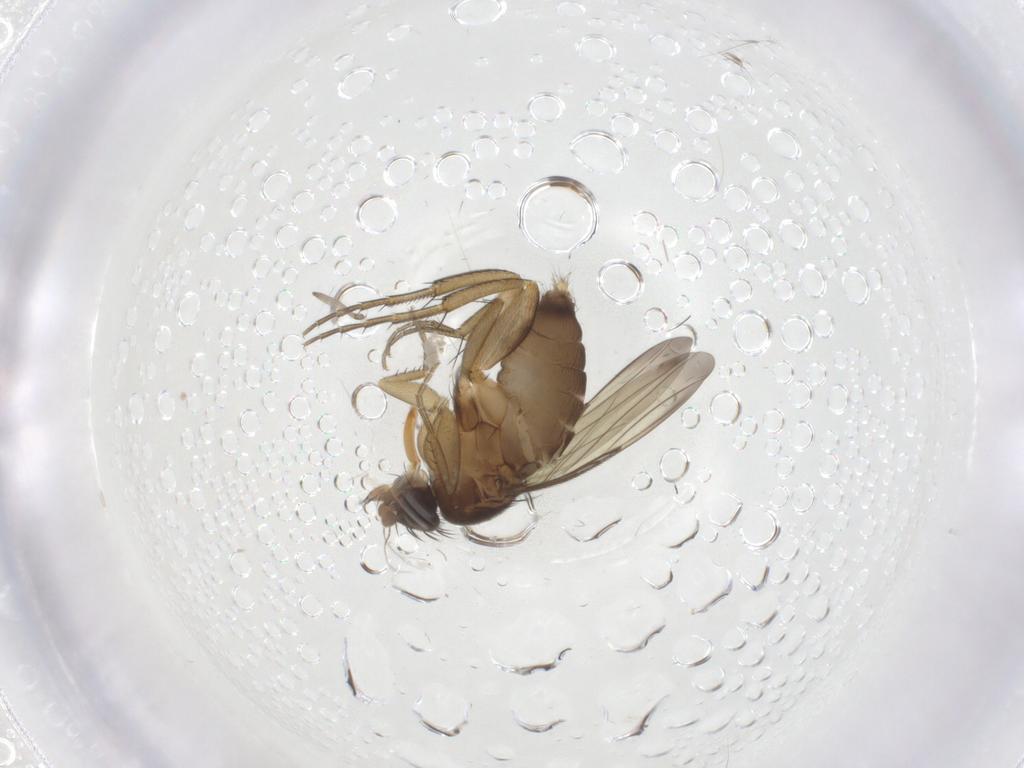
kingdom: Animalia
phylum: Arthropoda
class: Insecta
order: Diptera
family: Phoridae
